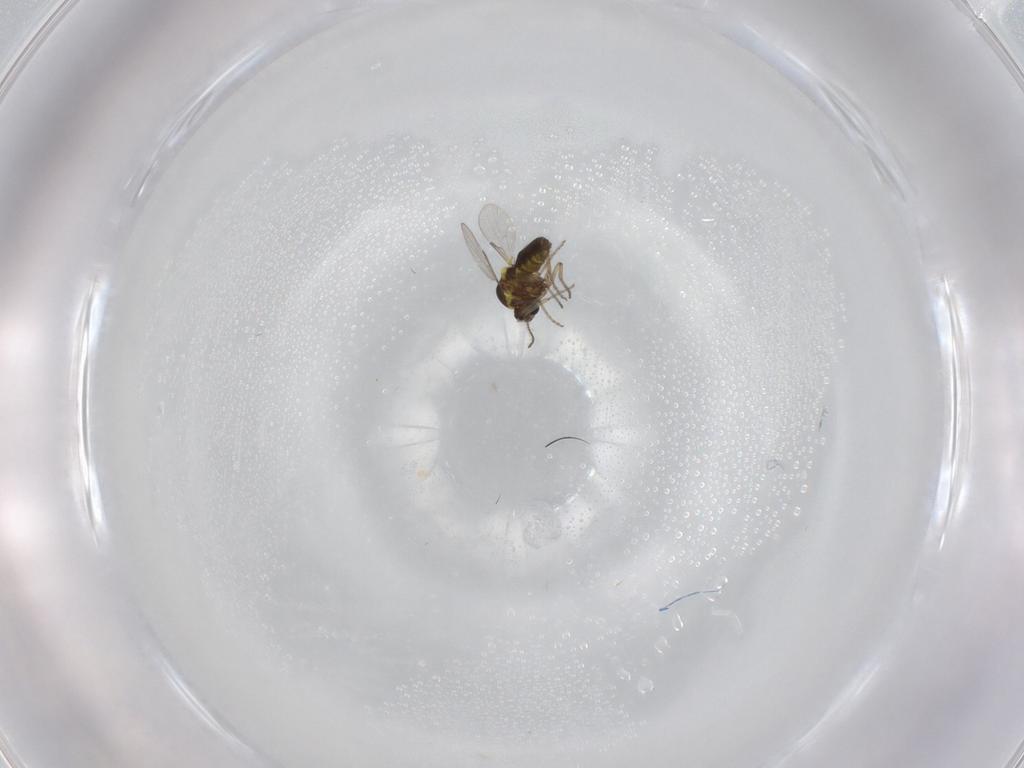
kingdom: Animalia
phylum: Arthropoda
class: Insecta
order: Diptera
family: Ceratopogonidae
